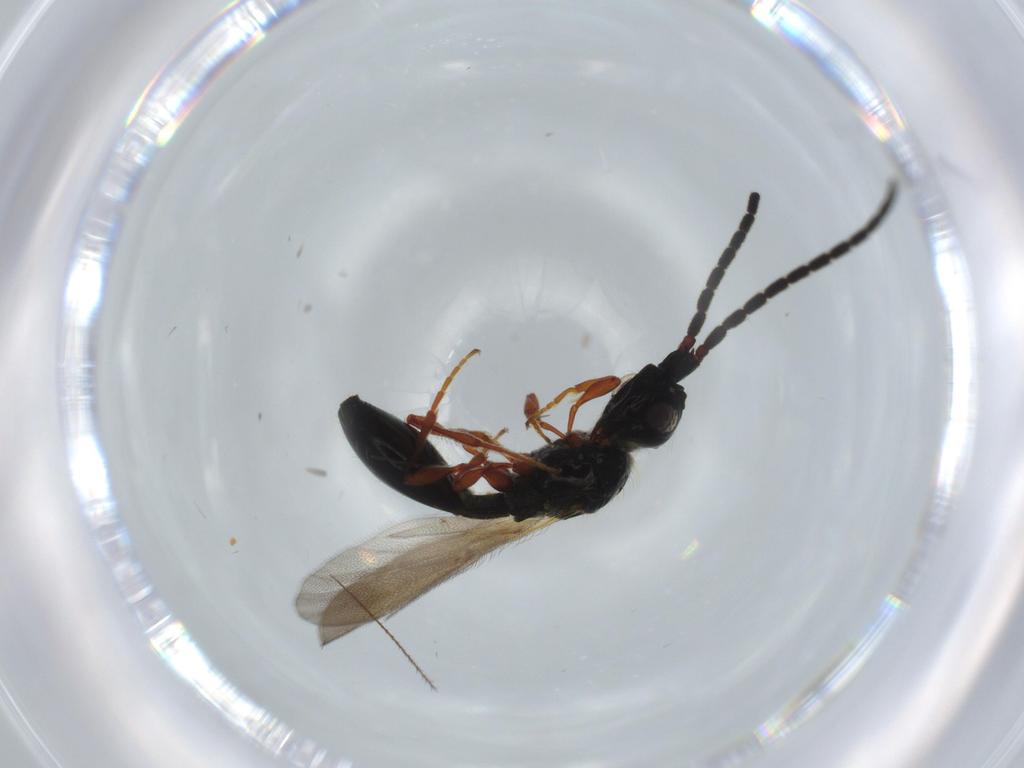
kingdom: Animalia
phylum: Arthropoda
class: Insecta
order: Hymenoptera
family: Diapriidae
